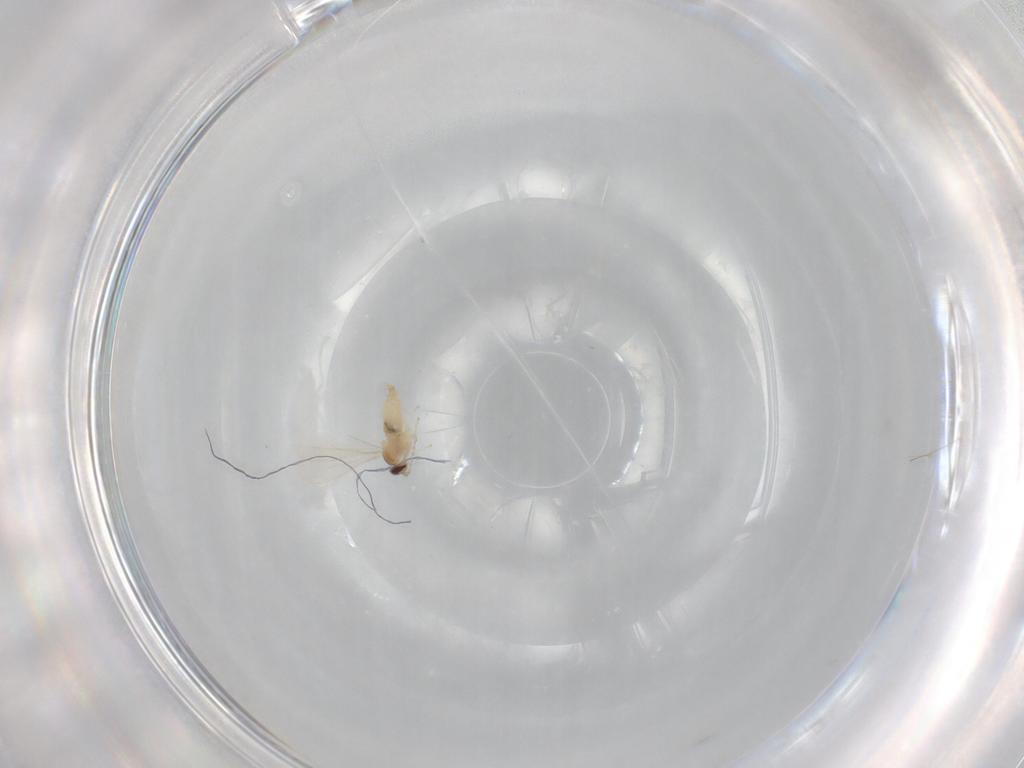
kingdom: Animalia
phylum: Arthropoda
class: Insecta
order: Diptera
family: Cecidomyiidae
